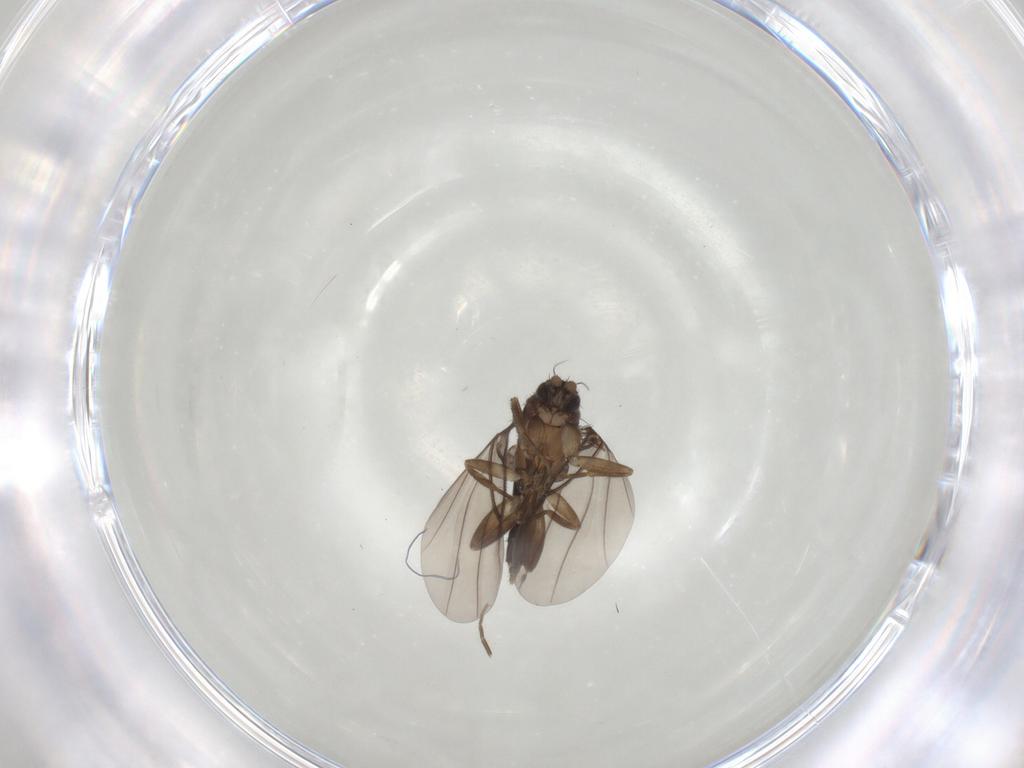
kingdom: Animalia
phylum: Arthropoda
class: Insecta
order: Diptera
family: Phoridae
